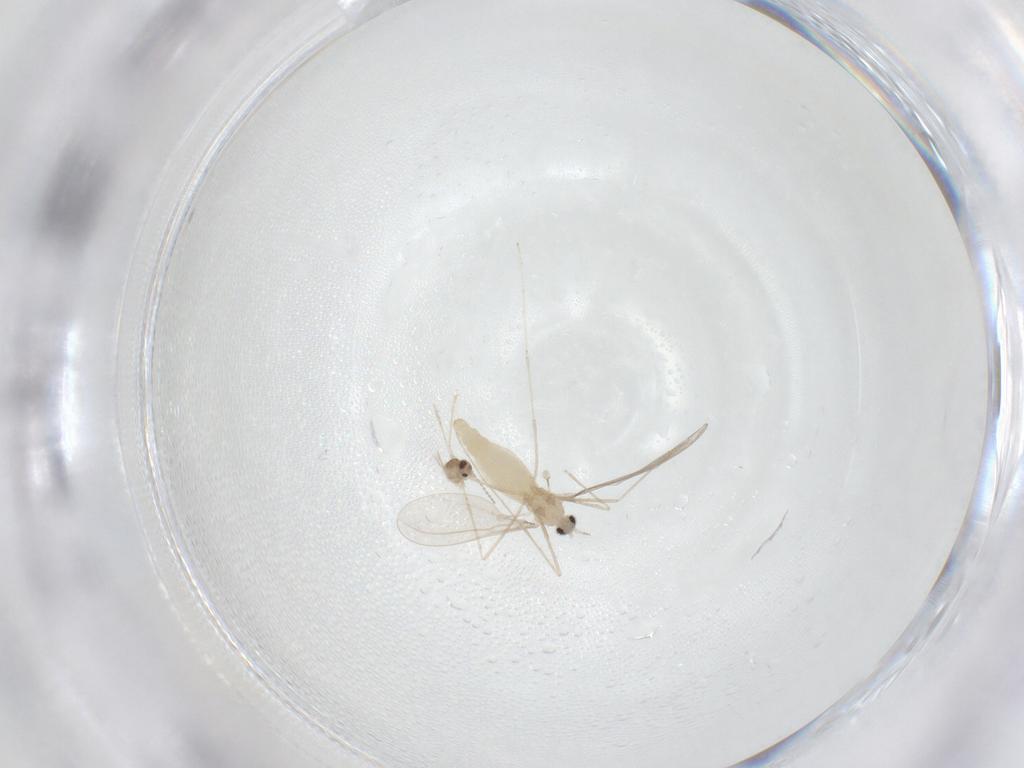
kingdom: Animalia
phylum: Arthropoda
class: Insecta
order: Diptera
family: Cecidomyiidae
